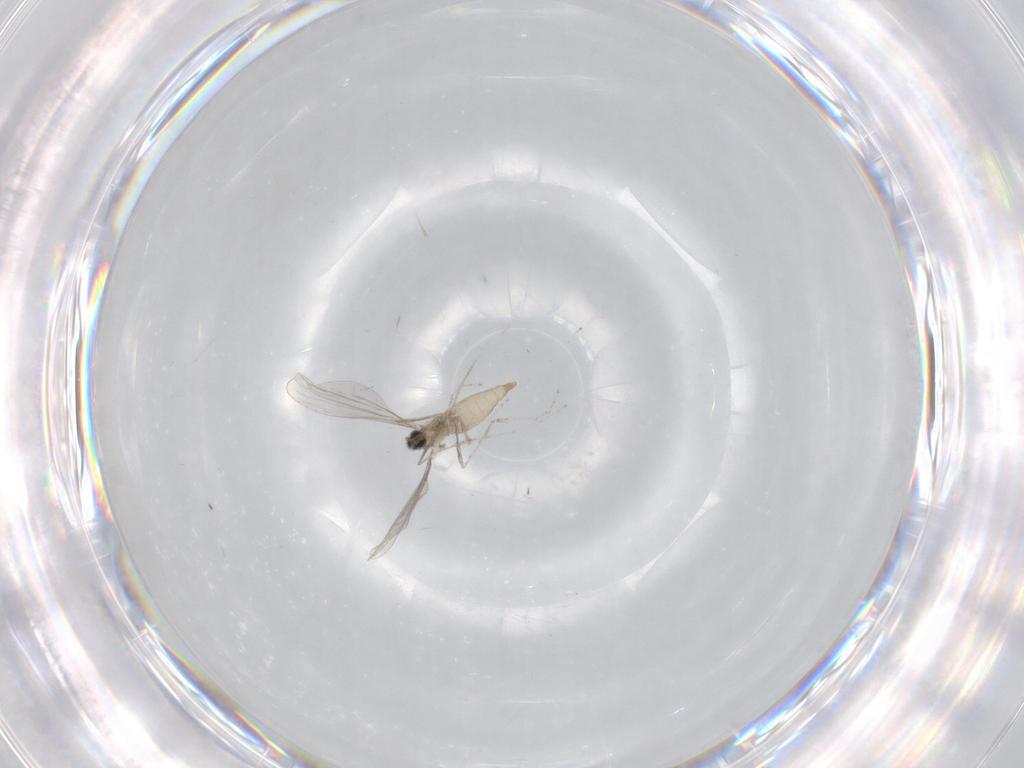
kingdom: Animalia
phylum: Arthropoda
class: Insecta
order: Diptera
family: Cecidomyiidae
